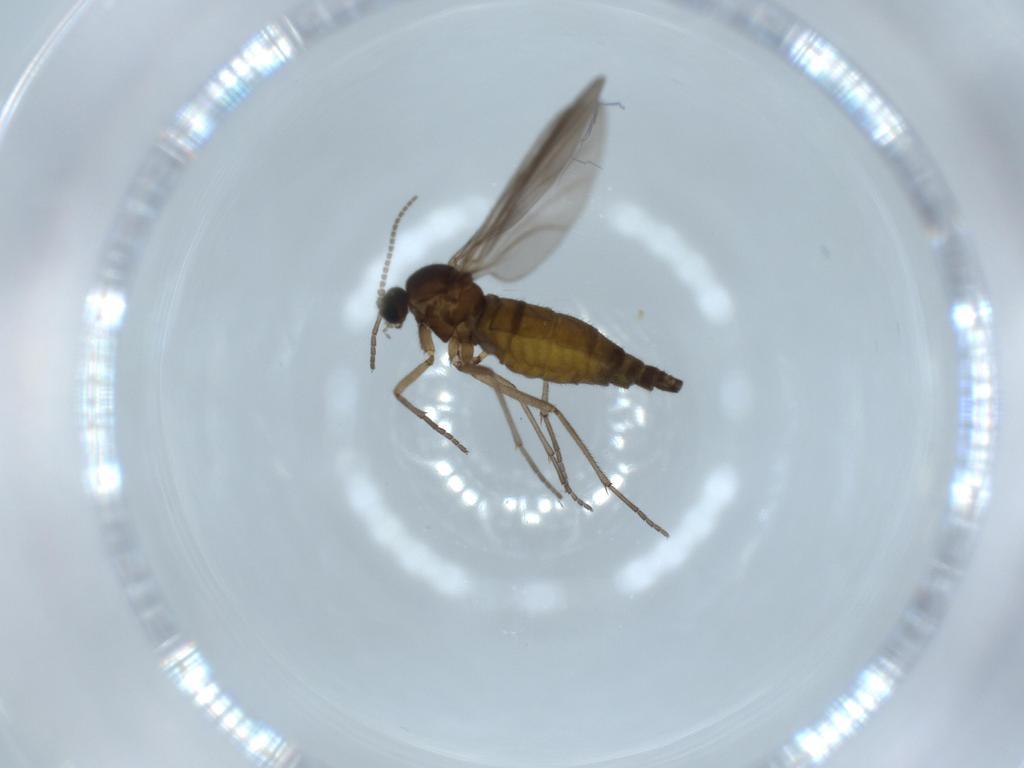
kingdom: Animalia
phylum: Arthropoda
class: Insecta
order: Diptera
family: Sciaridae
